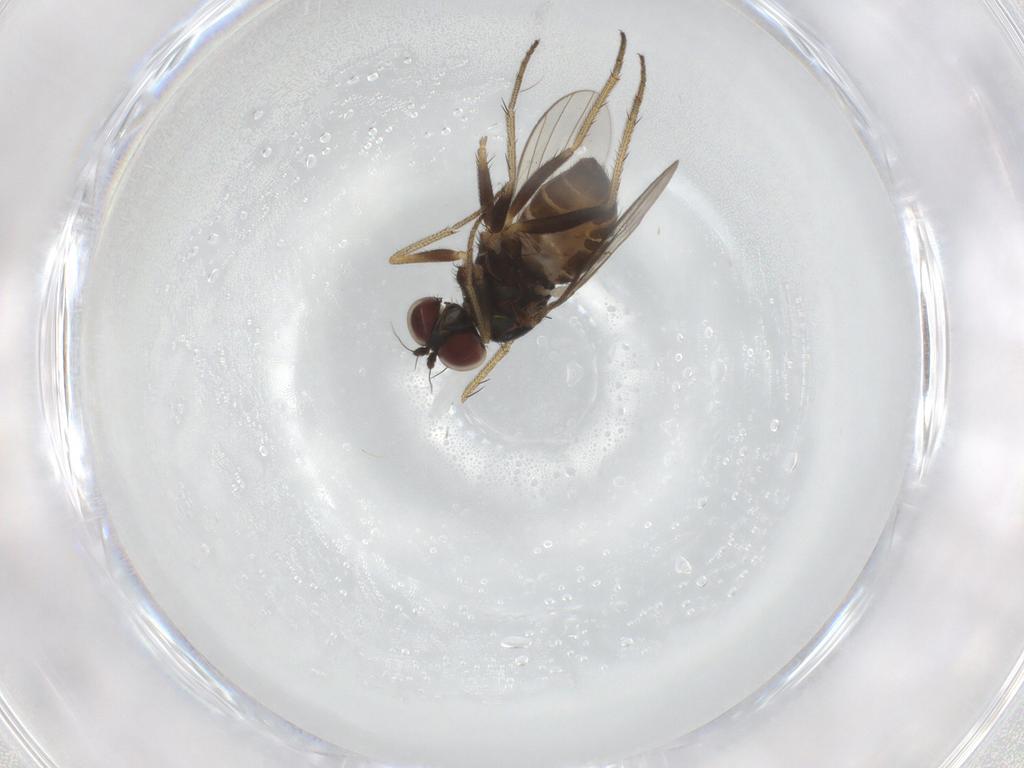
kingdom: Animalia
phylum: Arthropoda
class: Insecta
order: Diptera
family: Dolichopodidae
